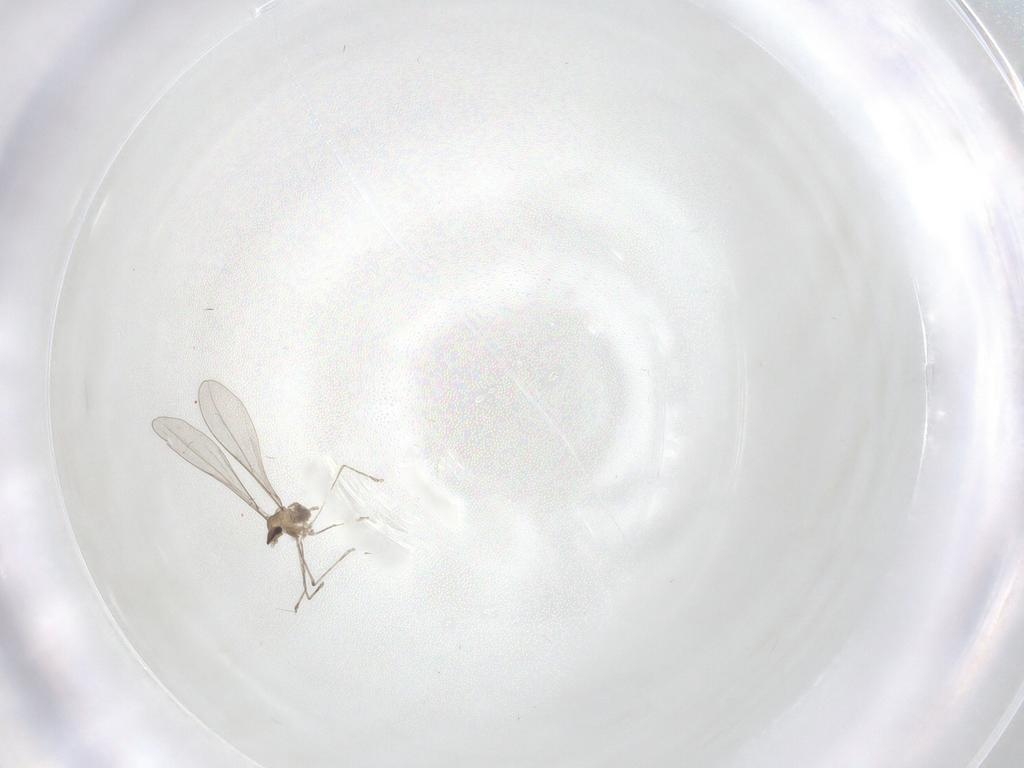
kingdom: Animalia
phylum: Arthropoda
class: Insecta
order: Diptera
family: Cecidomyiidae
